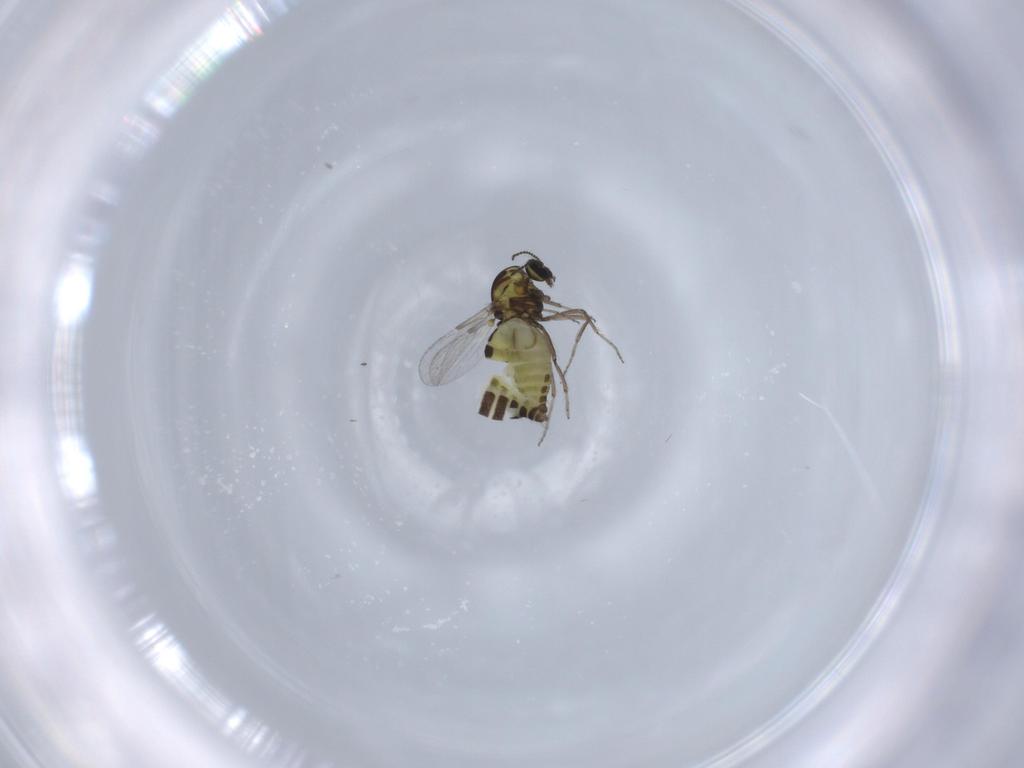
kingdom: Animalia
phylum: Arthropoda
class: Insecta
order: Diptera
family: Ceratopogonidae
